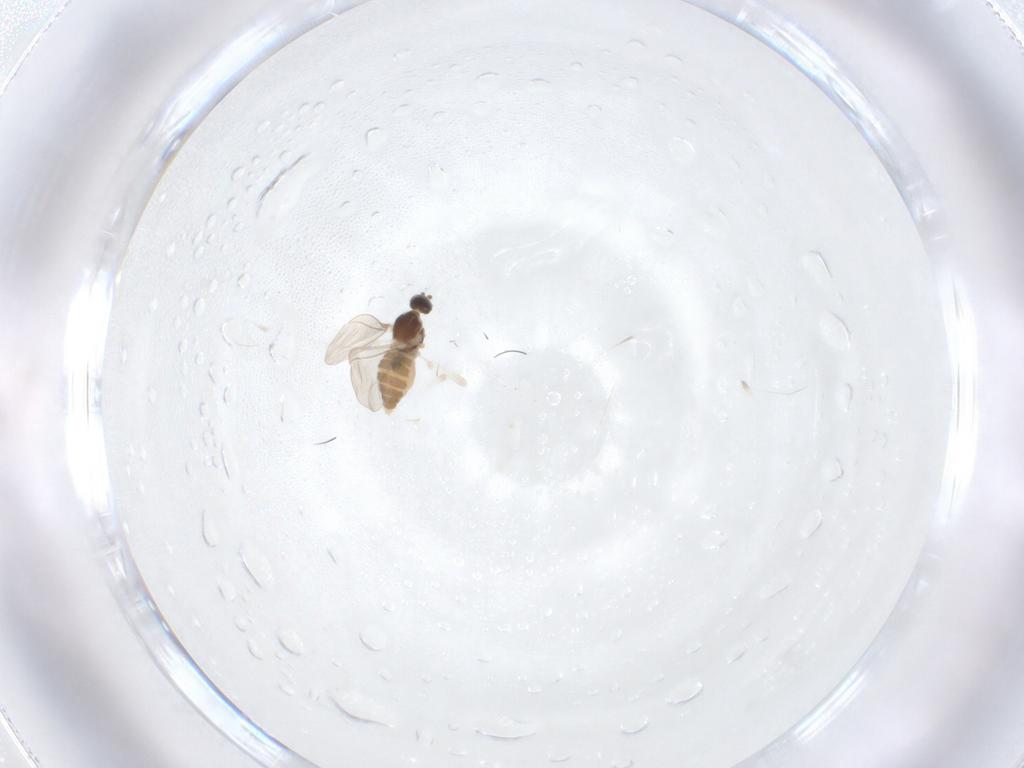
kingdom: Animalia
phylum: Arthropoda
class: Insecta
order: Diptera
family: Cecidomyiidae
